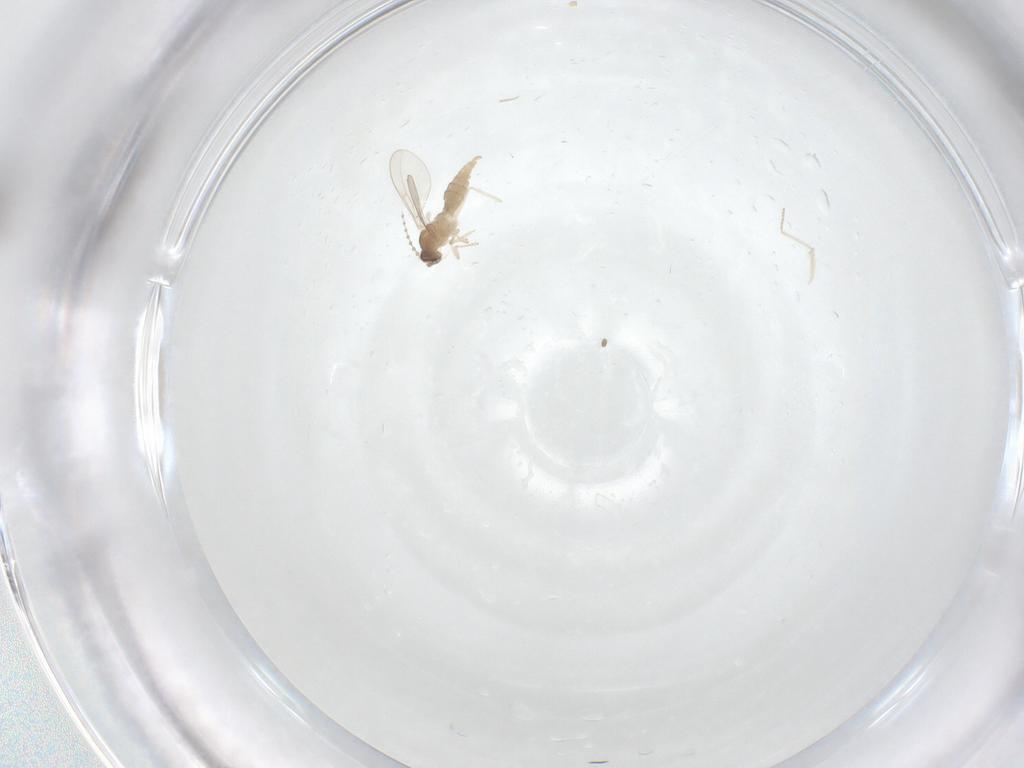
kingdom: Animalia
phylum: Arthropoda
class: Insecta
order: Diptera
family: Cecidomyiidae
